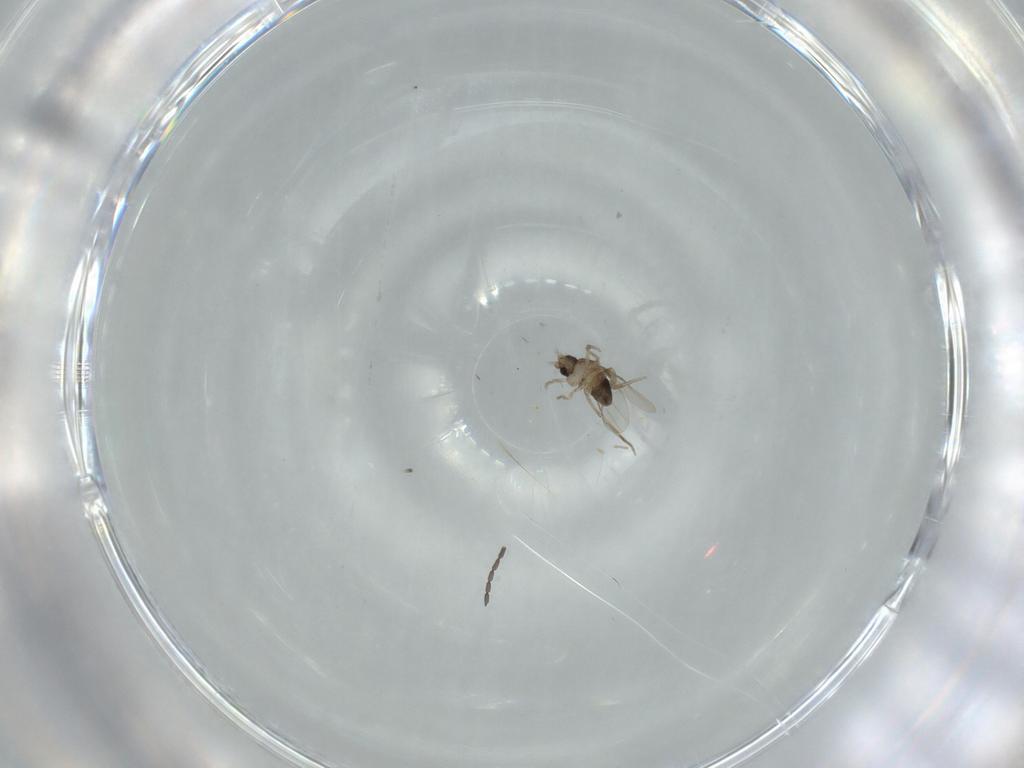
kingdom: Animalia
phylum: Arthropoda
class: Insecta
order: Diptera
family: Phoridae
